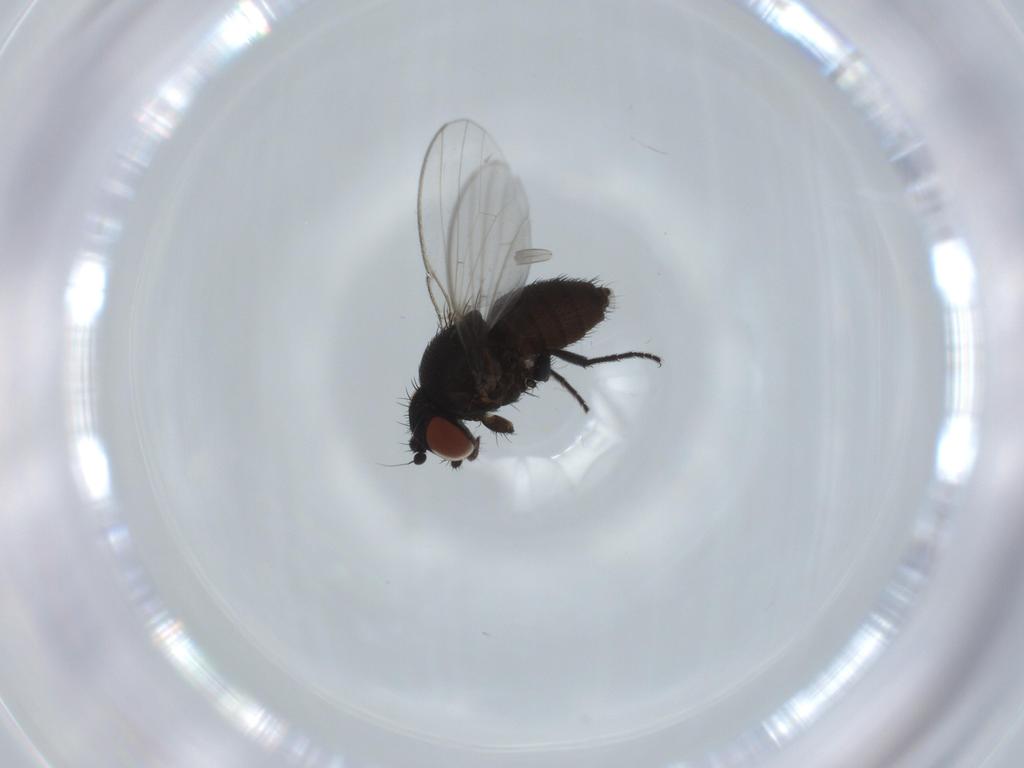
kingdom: Animalia
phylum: Arthropoda
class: Insecta
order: Diptera
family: Milichiidae
